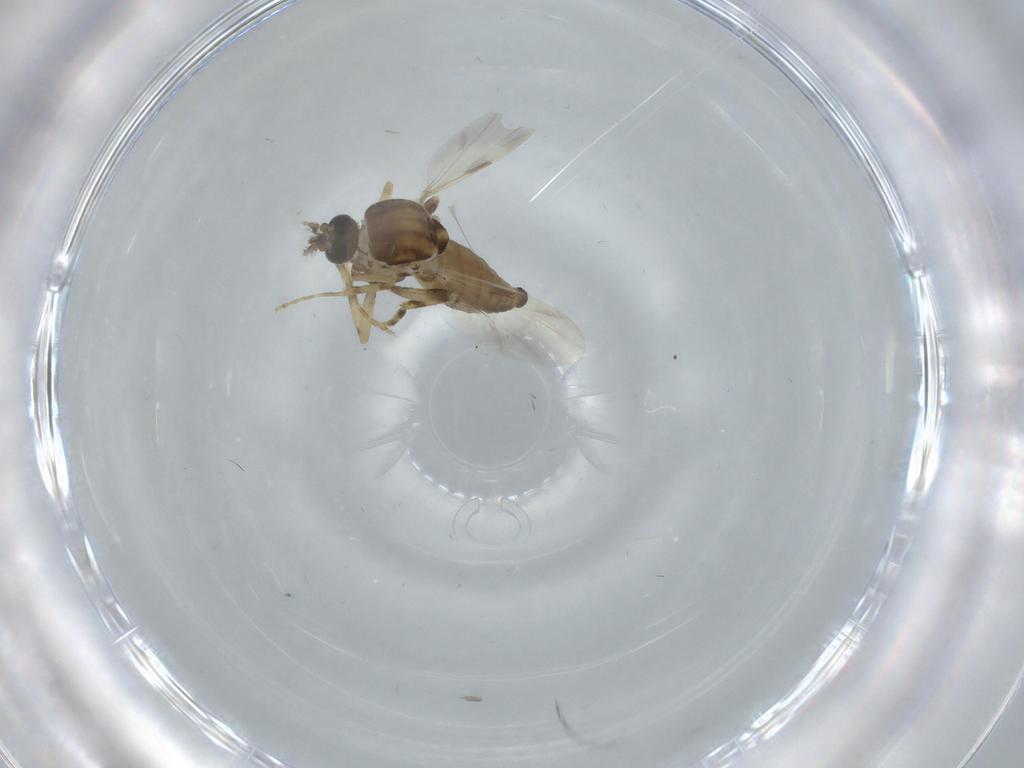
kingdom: Animalia
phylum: Arthropoda
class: Insecta
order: Diptera
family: Ceratopogonidae
